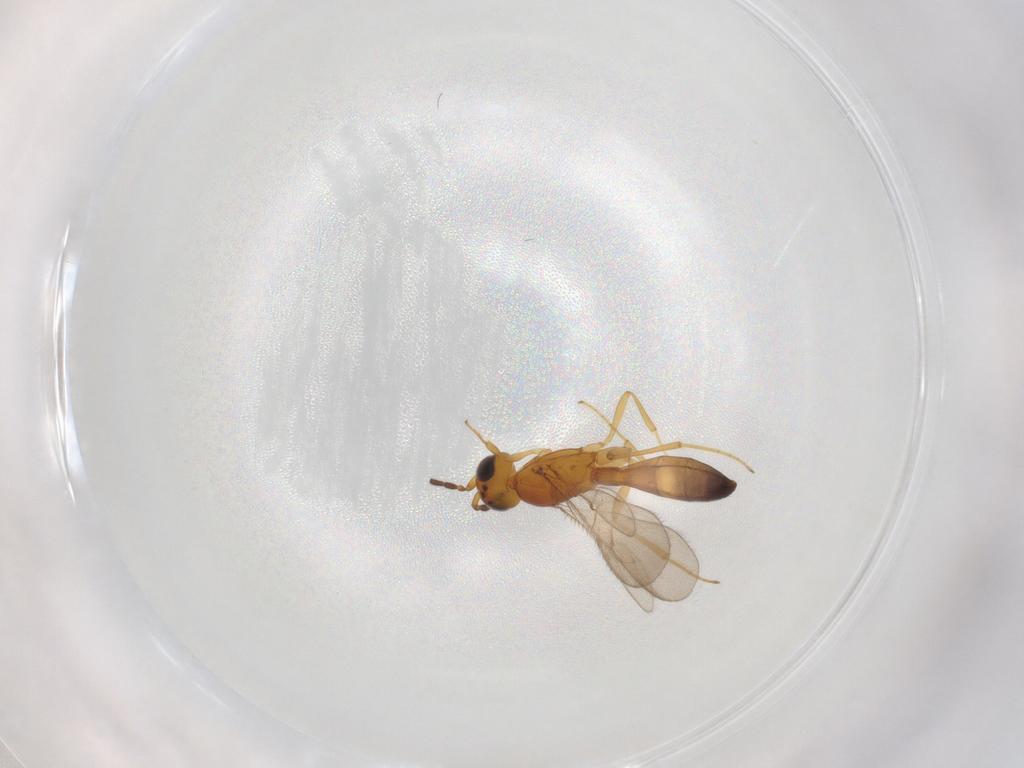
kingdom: Animalia
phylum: Arthropoda
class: Insecta
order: Hymenoptera
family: Scelionidae
